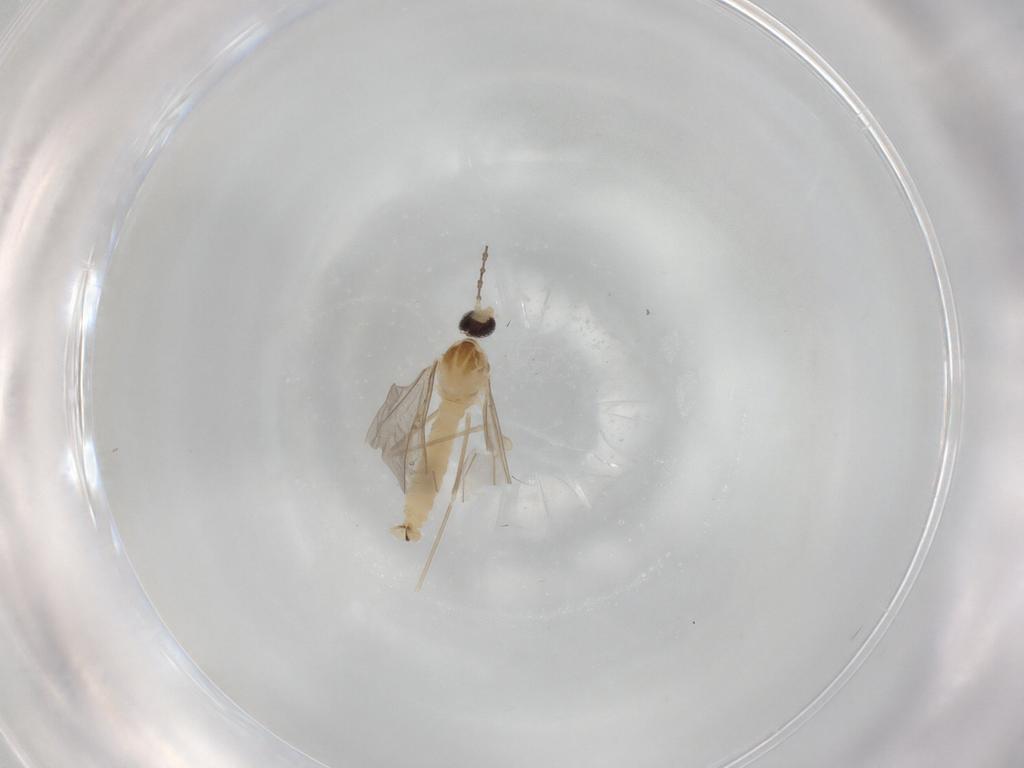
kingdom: Animalia
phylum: Arthropoda
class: Insecta
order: Diptera
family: Cecidomyiidae
